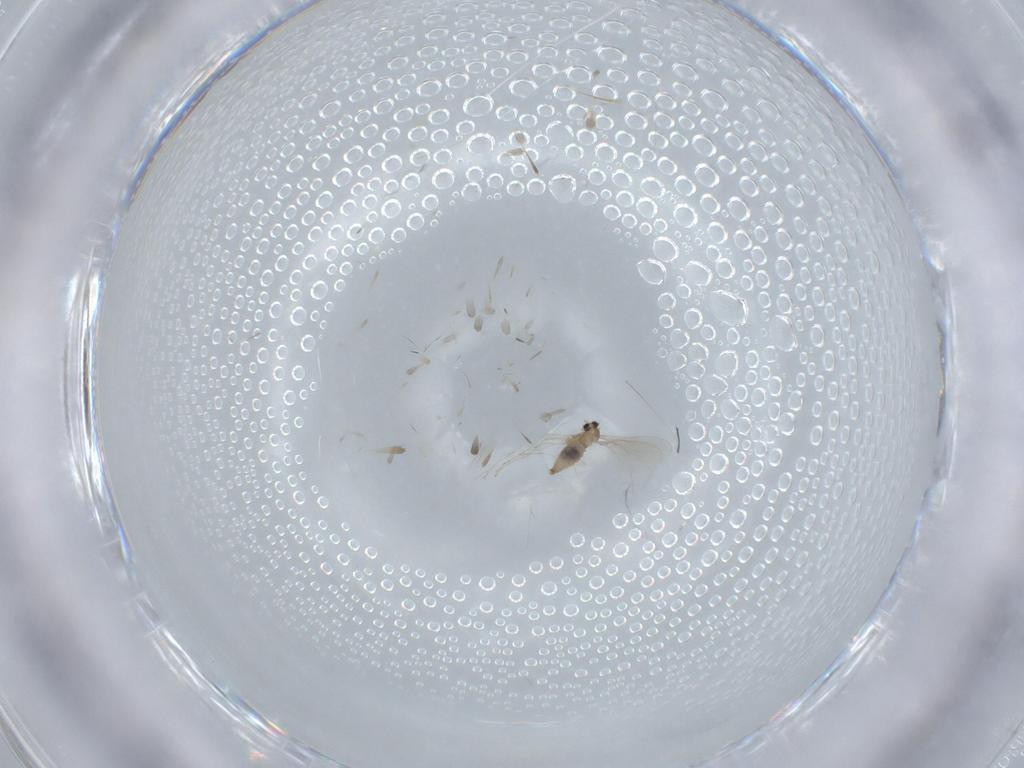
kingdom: Animalia
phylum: Arthropoda
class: Insecta
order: Diptera
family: Cecidomyiidae
